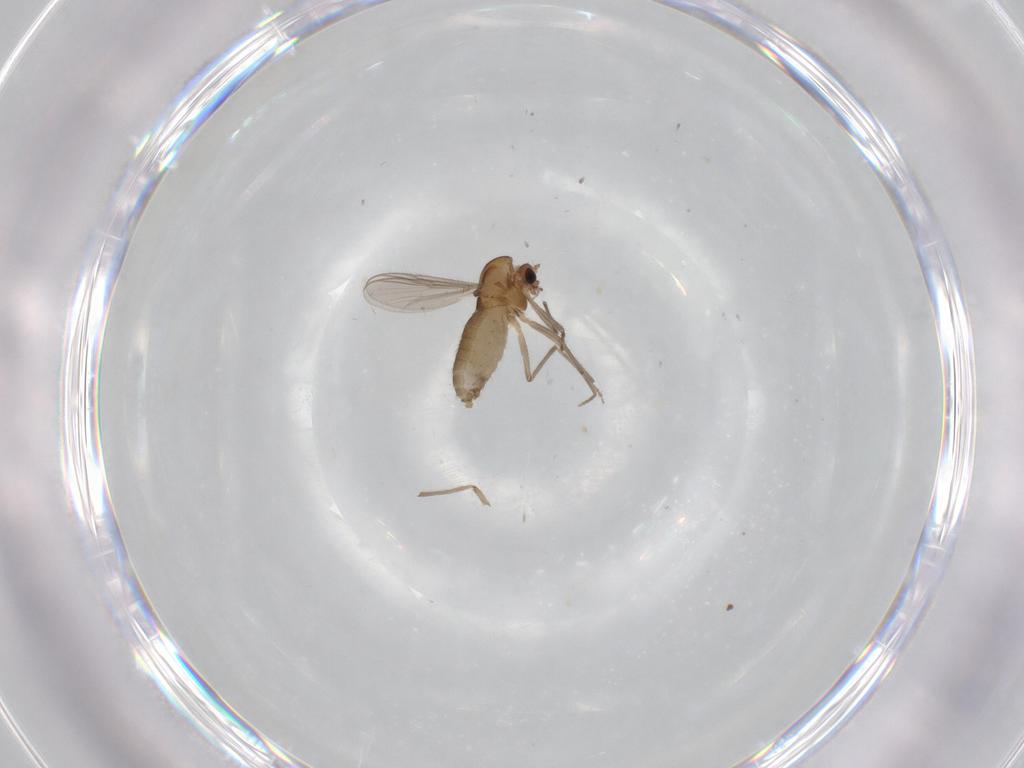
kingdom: Animalia
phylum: Arthropoda
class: Insecta
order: Diptera
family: Chironomidae
